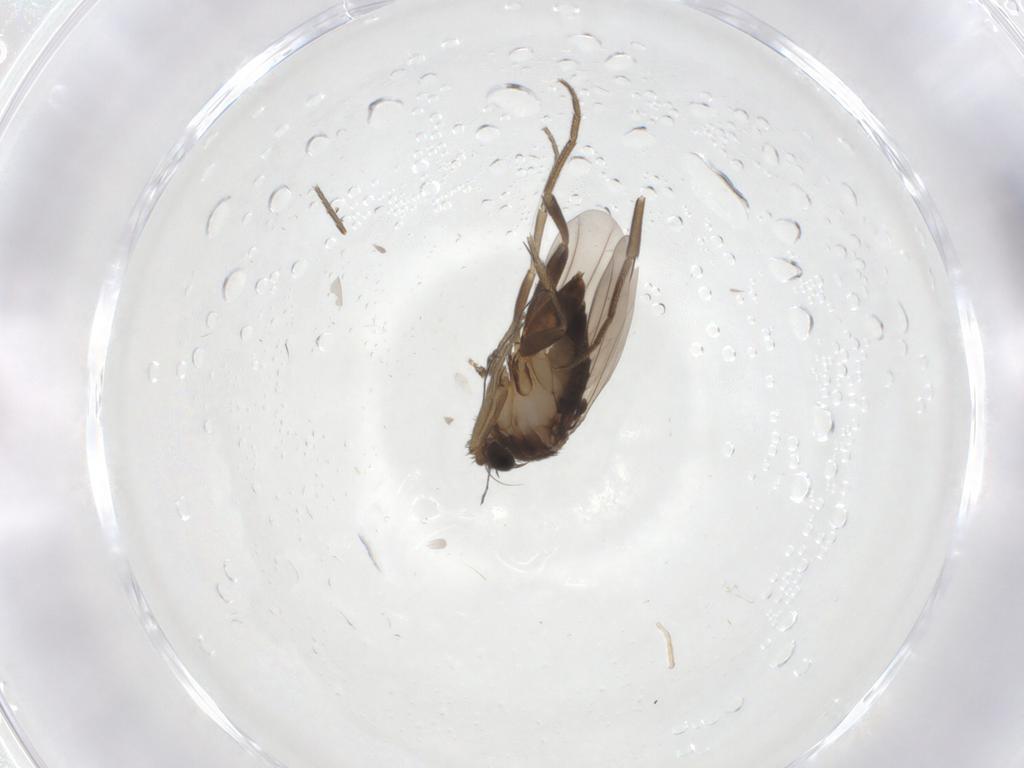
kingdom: Animalia
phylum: Arthropoda
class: Insecta
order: Diptera
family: Phoridae
